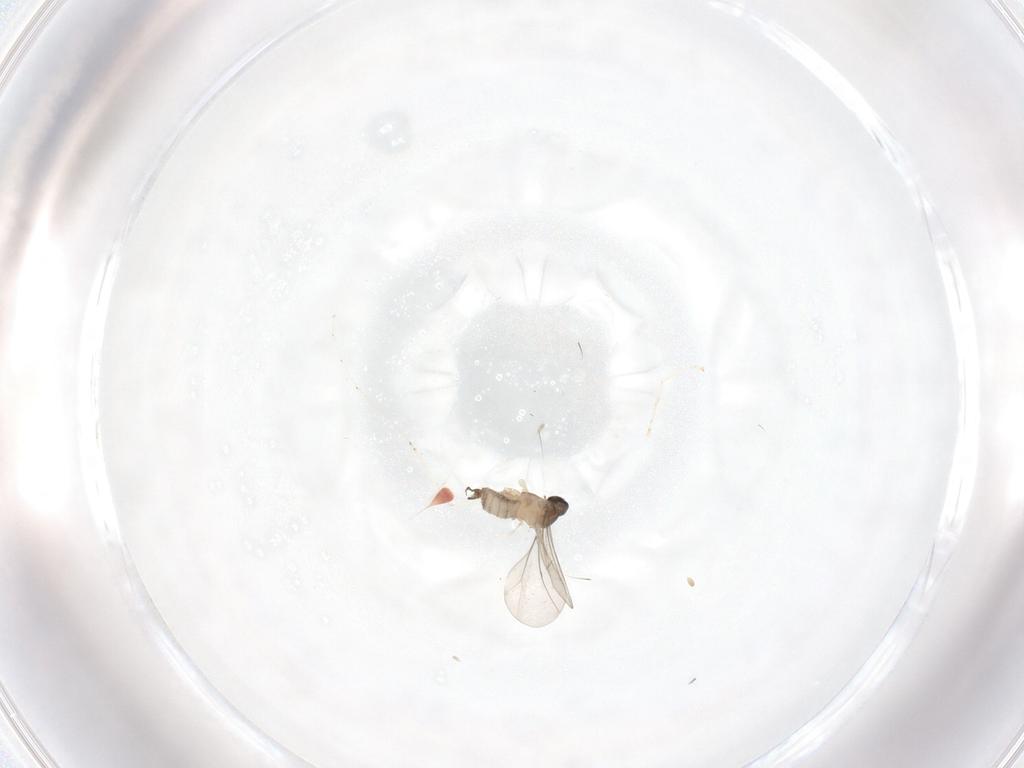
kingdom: Animalia
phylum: Arthropoda
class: Insecta
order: Diptera
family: Cecidomyiidae
